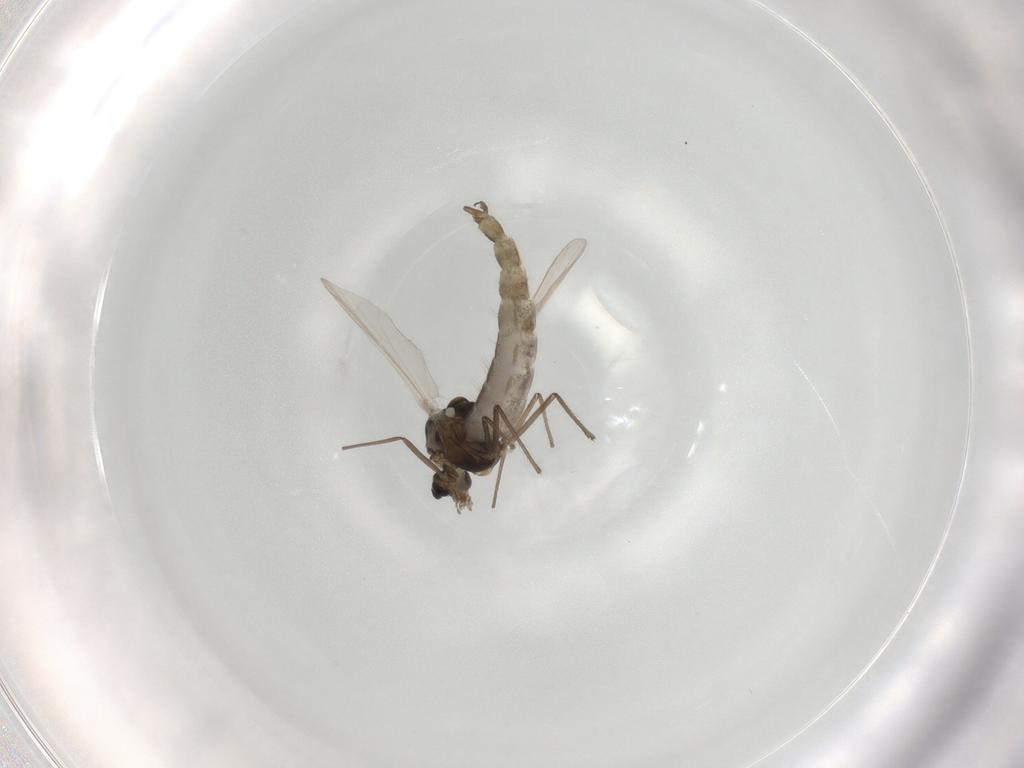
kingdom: Animalia
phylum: Arthropoda
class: Insecta
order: Diptera
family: Chironomidae
